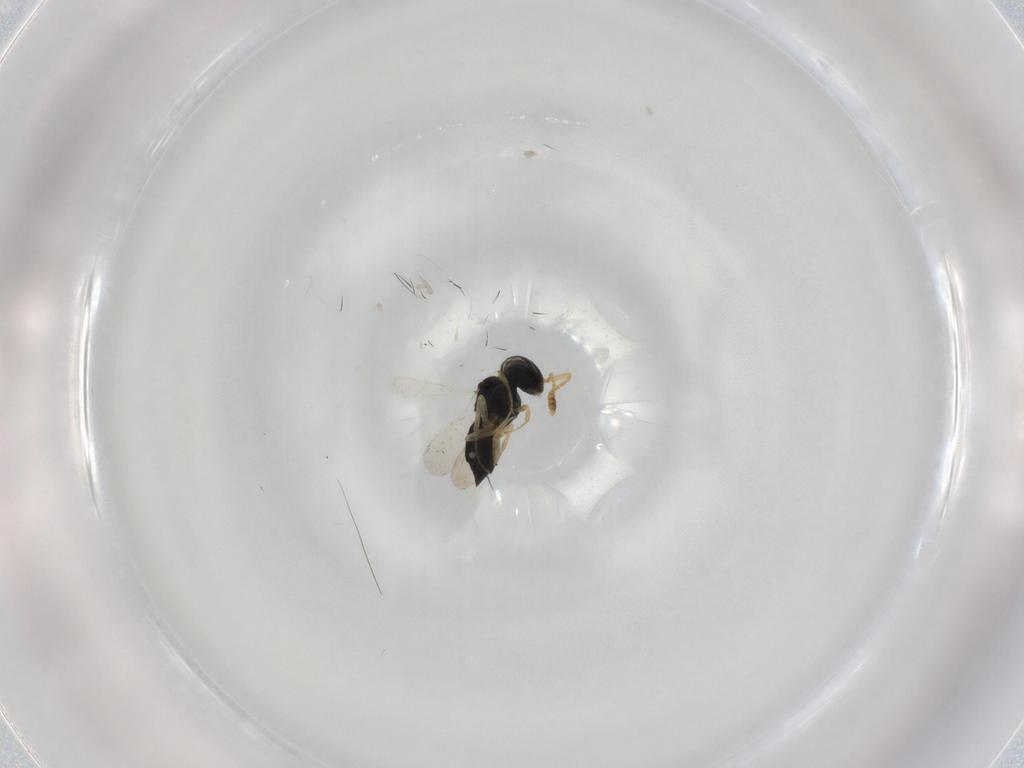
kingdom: Animalia
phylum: Arthropoda
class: Insecta
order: Hymenoptera
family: Scelionidae
